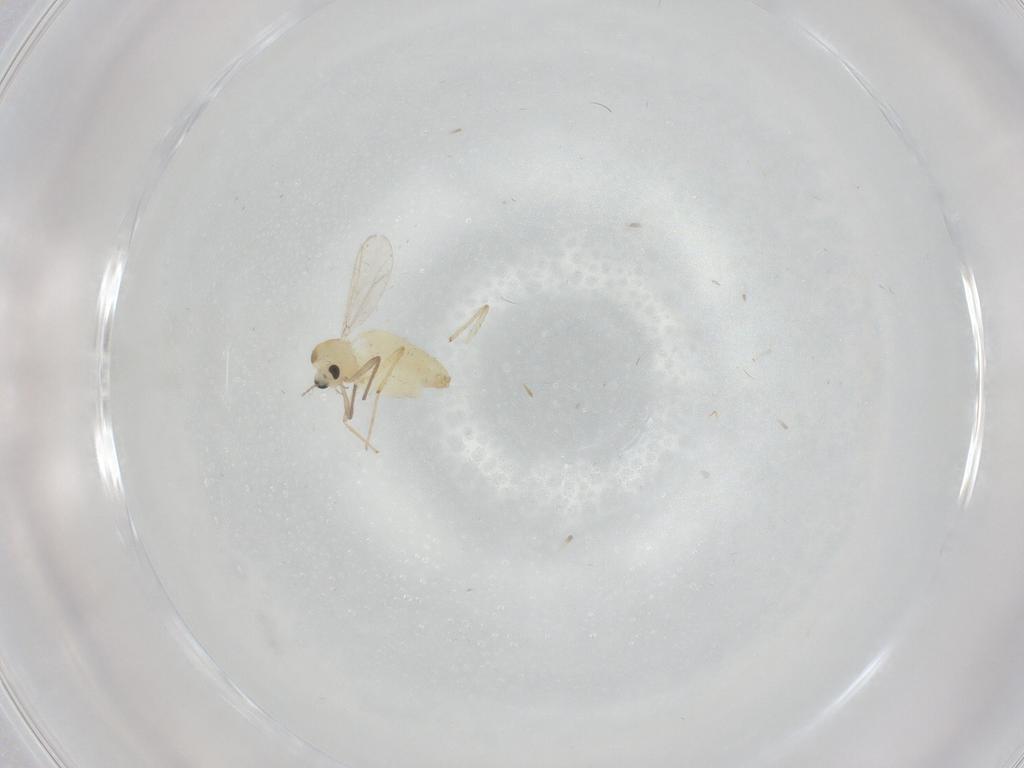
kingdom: Animalia
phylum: Arthropoda
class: Insecta
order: Diptera
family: Chironomidae
